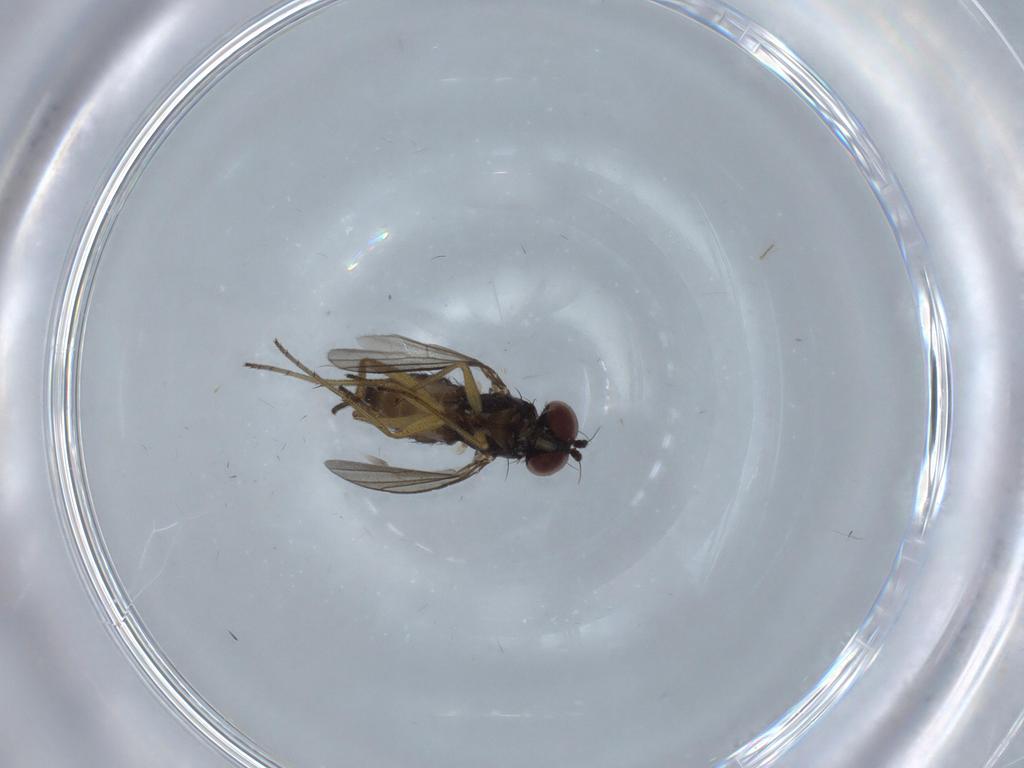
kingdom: Animalia
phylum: Arthropoda
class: Insecta
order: Diptera
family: Dolichopodidae
